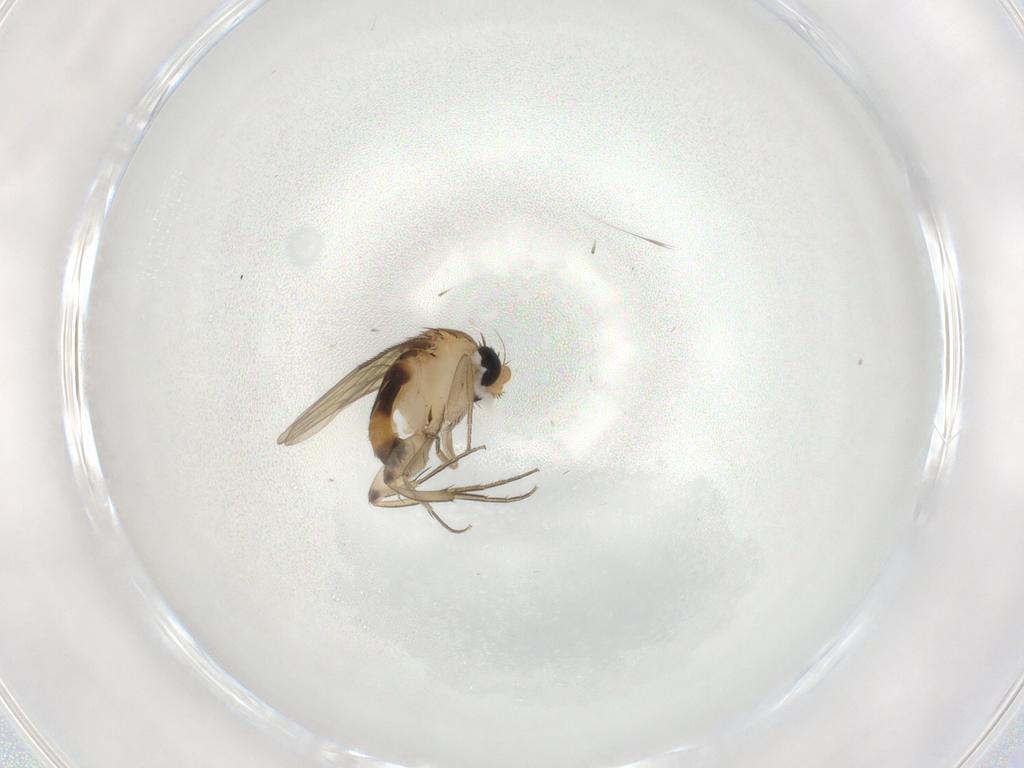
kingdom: Animalia
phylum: Arthropoda
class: Insecta
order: Diptera
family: Phoridae
